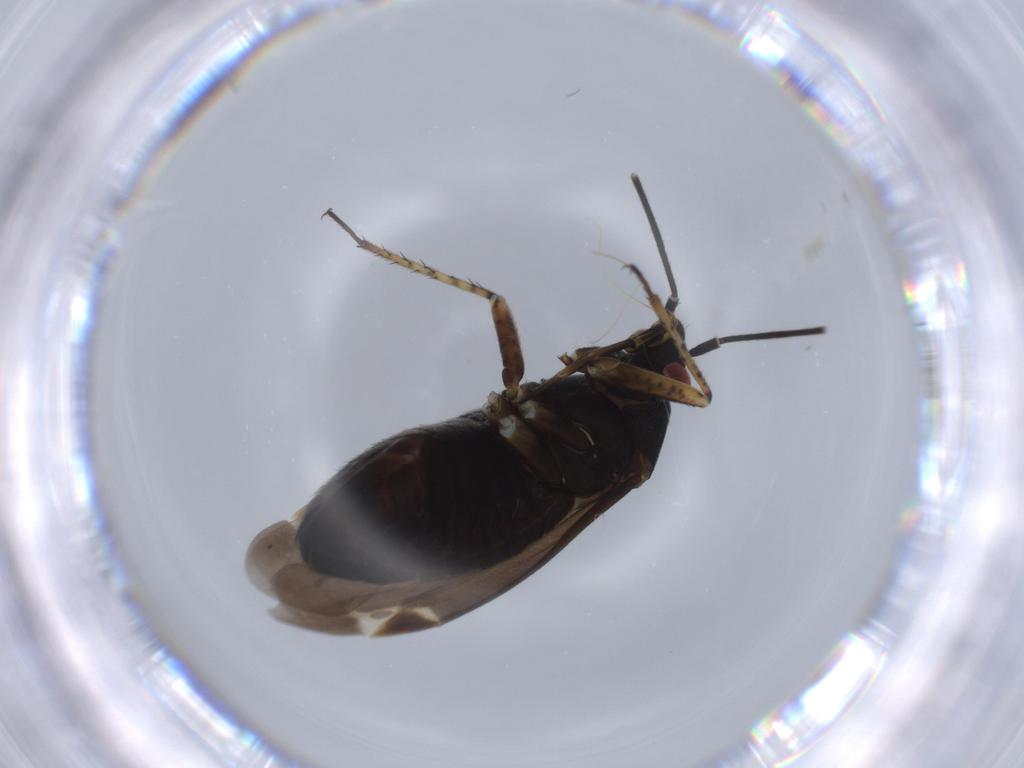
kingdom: Animalia
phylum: Arthropoda
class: Insecta
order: Hemiptera
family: Miridae
